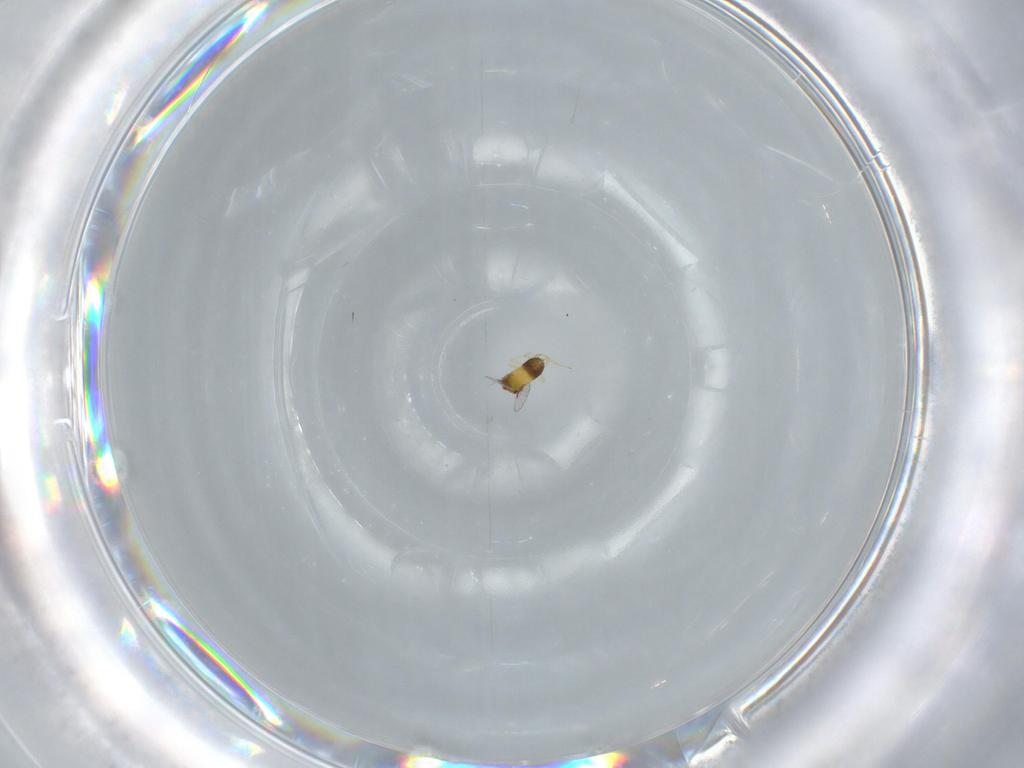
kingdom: Animalia
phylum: Arthropoda
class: Insecta
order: Hymenoptera
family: Trichogrammatidae
